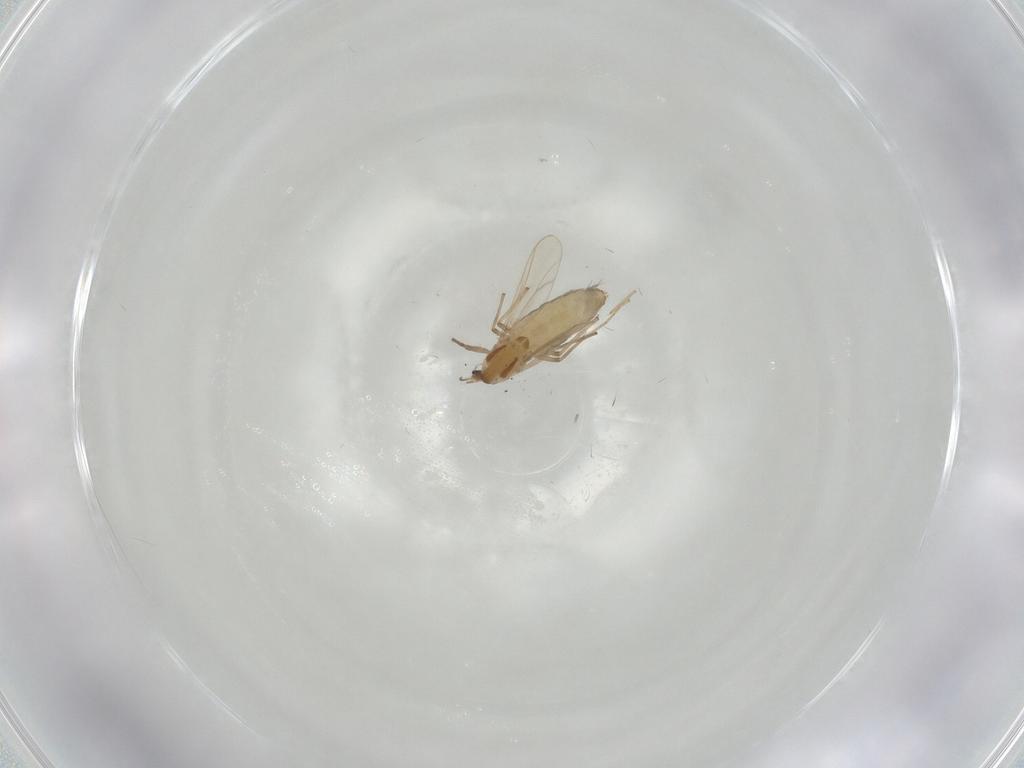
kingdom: Animalia
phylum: Arthropoda
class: Insecta
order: Diptera
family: Chironomidae
